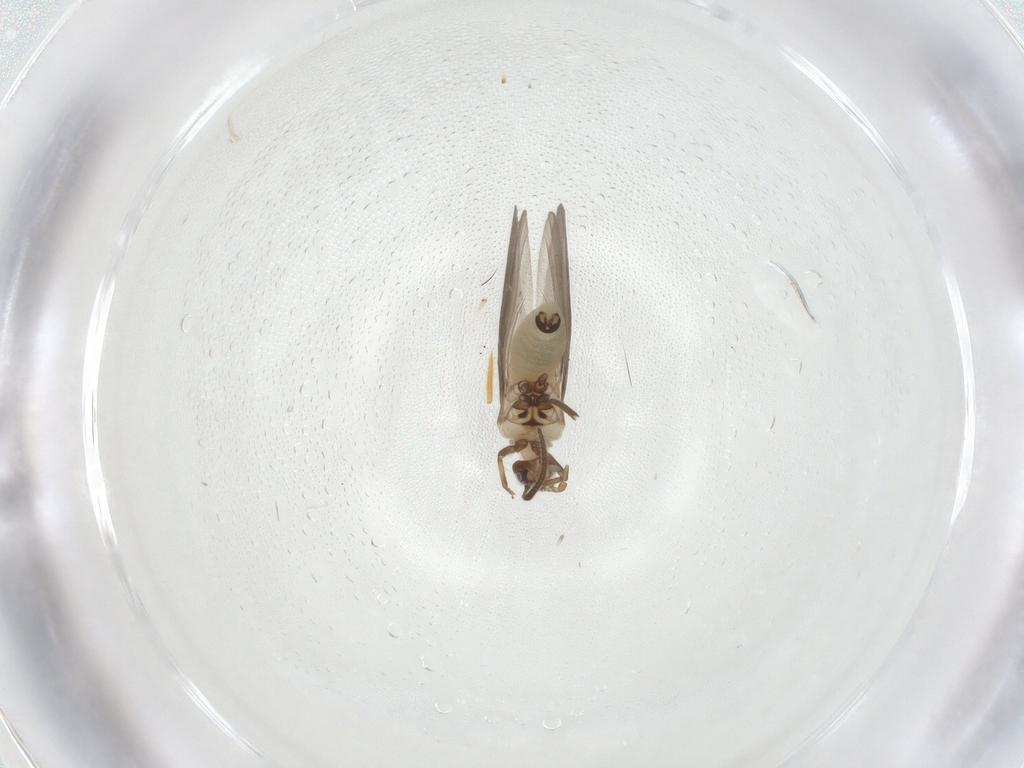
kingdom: Animalia
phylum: Arthropoda
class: Insecta
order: Neuroptera
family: Coniopterygidae
